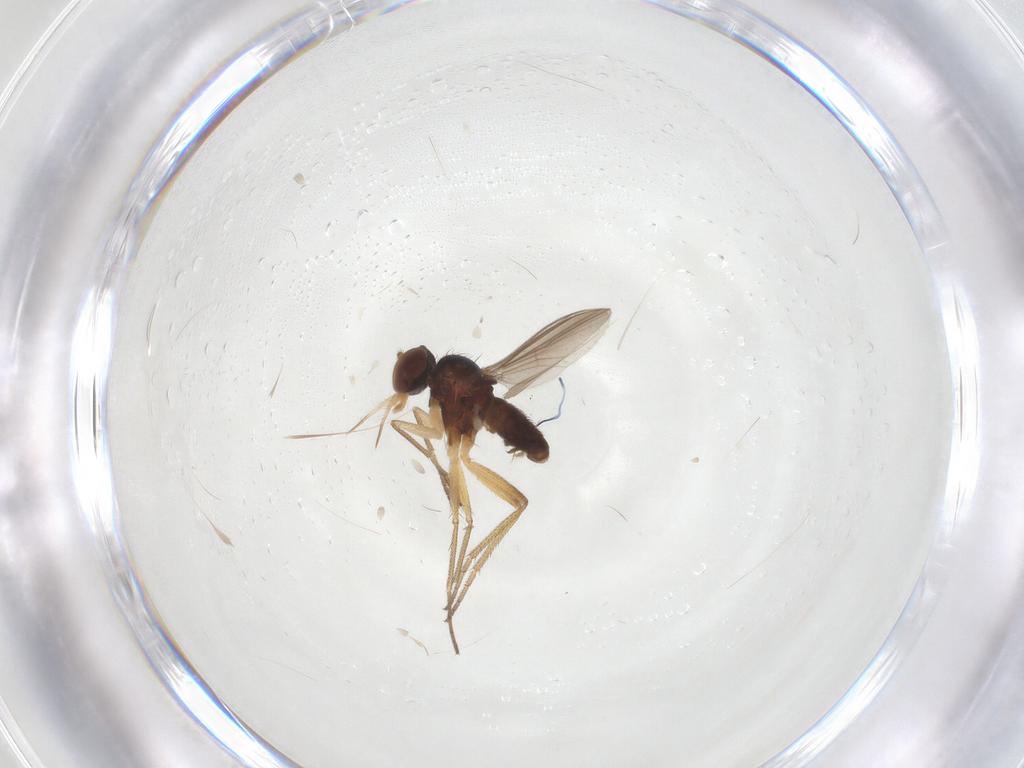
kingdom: Animalia
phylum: Arthropoda
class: Insecta
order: Diptera
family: Dolichopodidae
